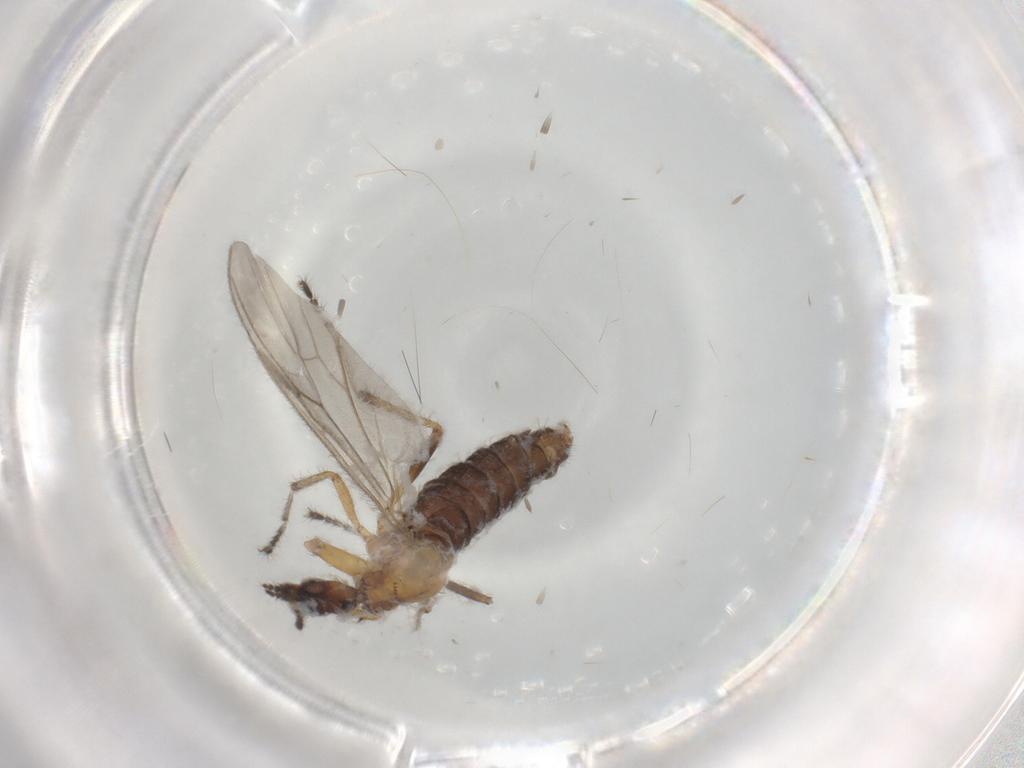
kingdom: Animalia
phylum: Arthropoda
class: Insecta
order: Diptera
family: Bibionidae
